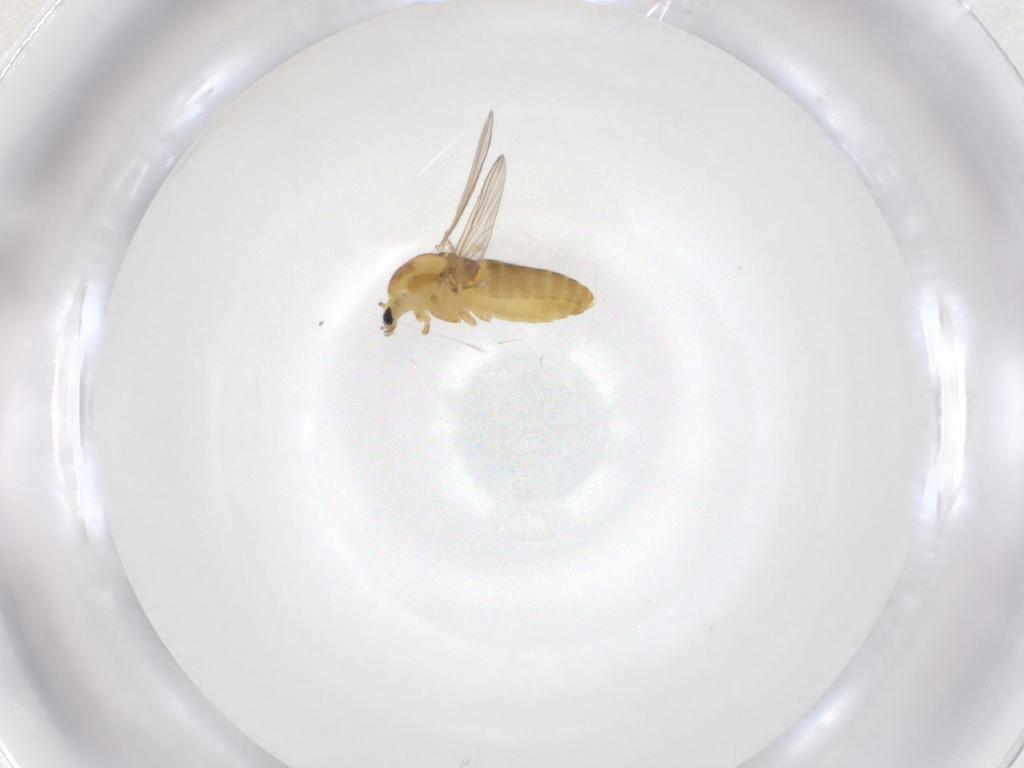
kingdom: Animalia
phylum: Arthropoda
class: Insecta
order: Diptera
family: Chironomidae
